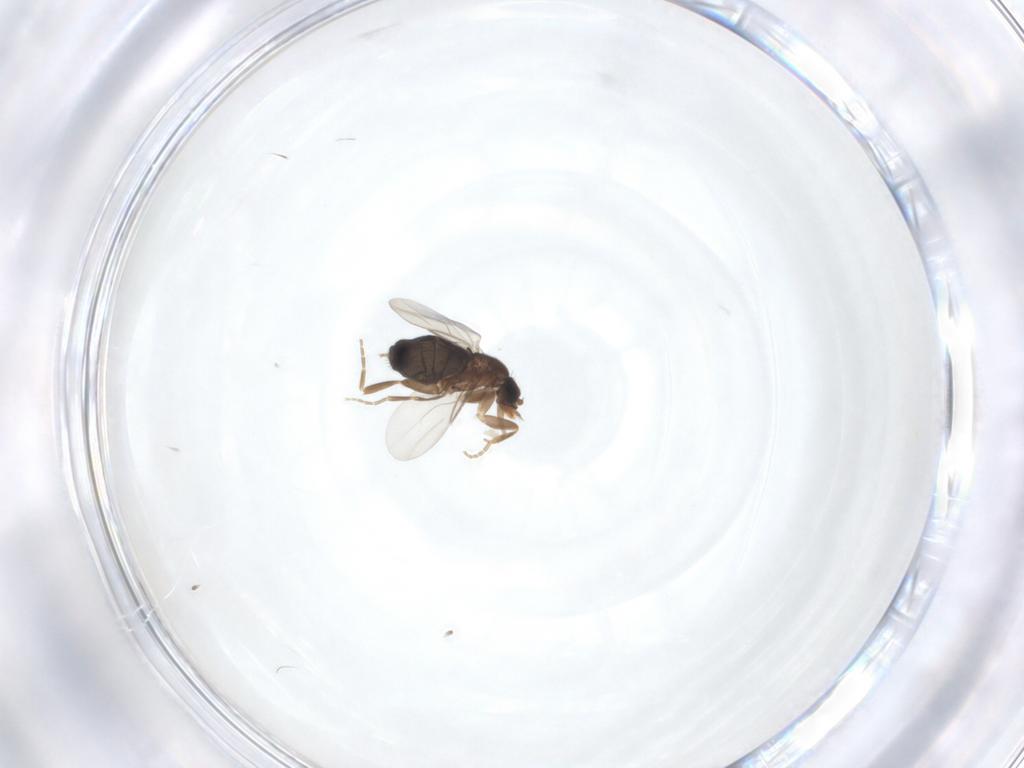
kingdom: Animalia
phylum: Arthropoda
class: Insecta
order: Diptera
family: Phoridae
